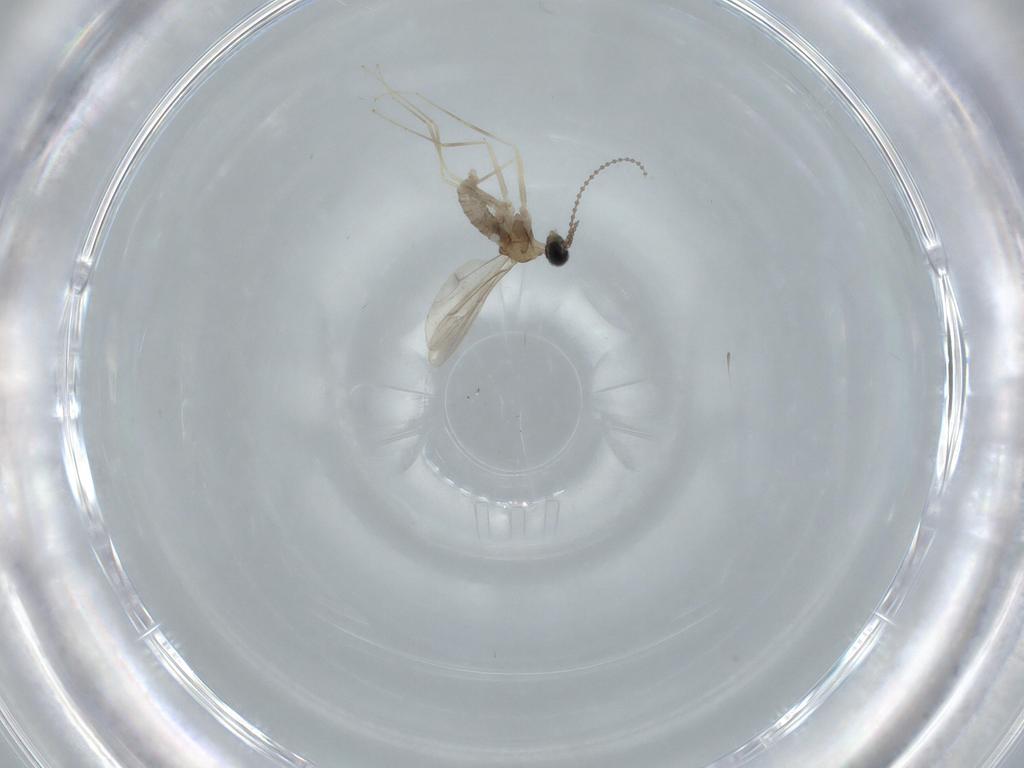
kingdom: Animalia
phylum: Arthropoda
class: Insecta
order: Diptera
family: Cecidomyiidae
